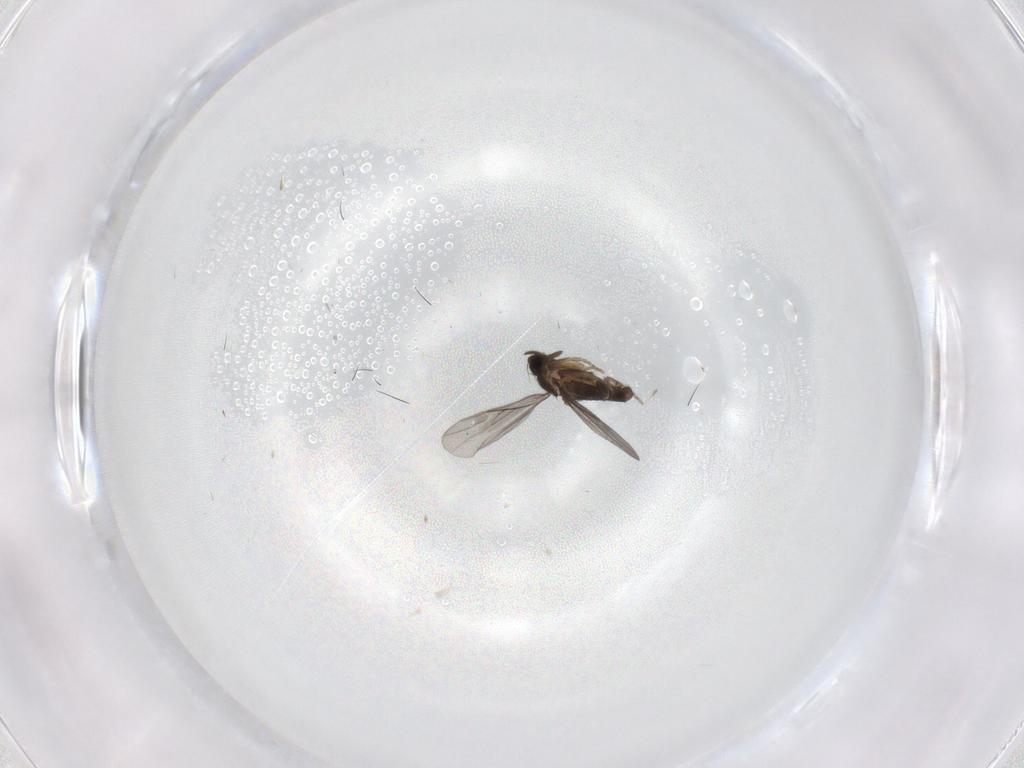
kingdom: Animalia
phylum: Arthropoda
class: Insecta
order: Diptera
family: Cecidomyiidae
